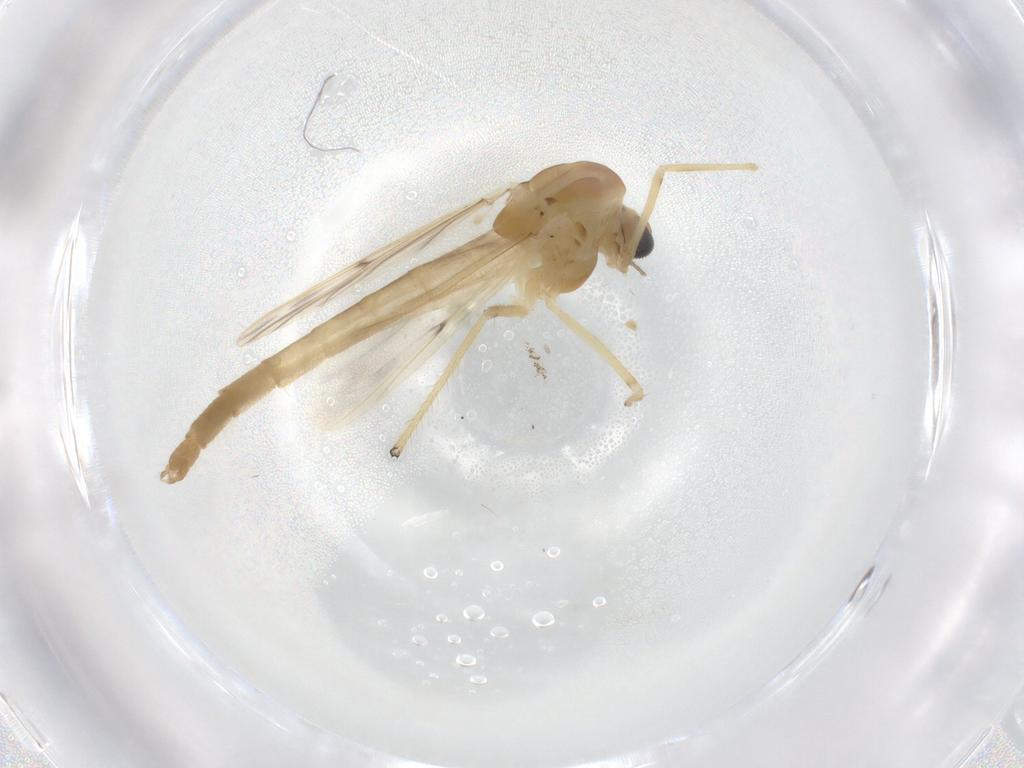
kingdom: Animalia
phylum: Arthropoda
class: Insecta
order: Diptera
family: Chironomidae
